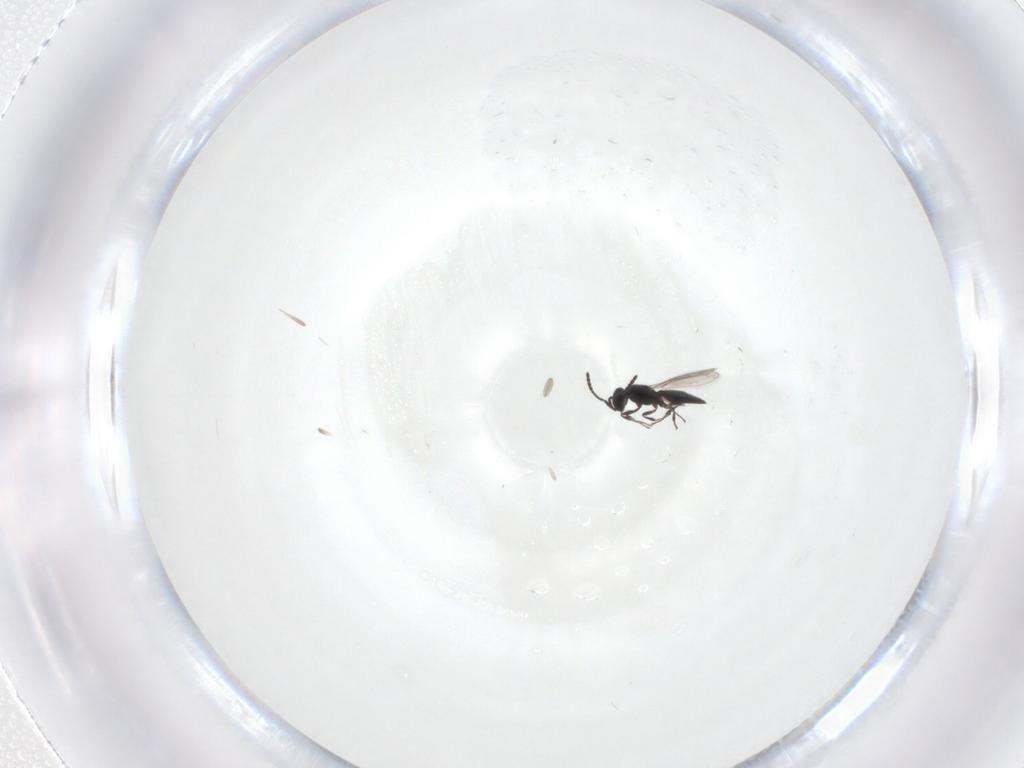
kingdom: Animalia
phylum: Arthropoda
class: Insecta
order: Hymenoptera
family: Scelionidae
